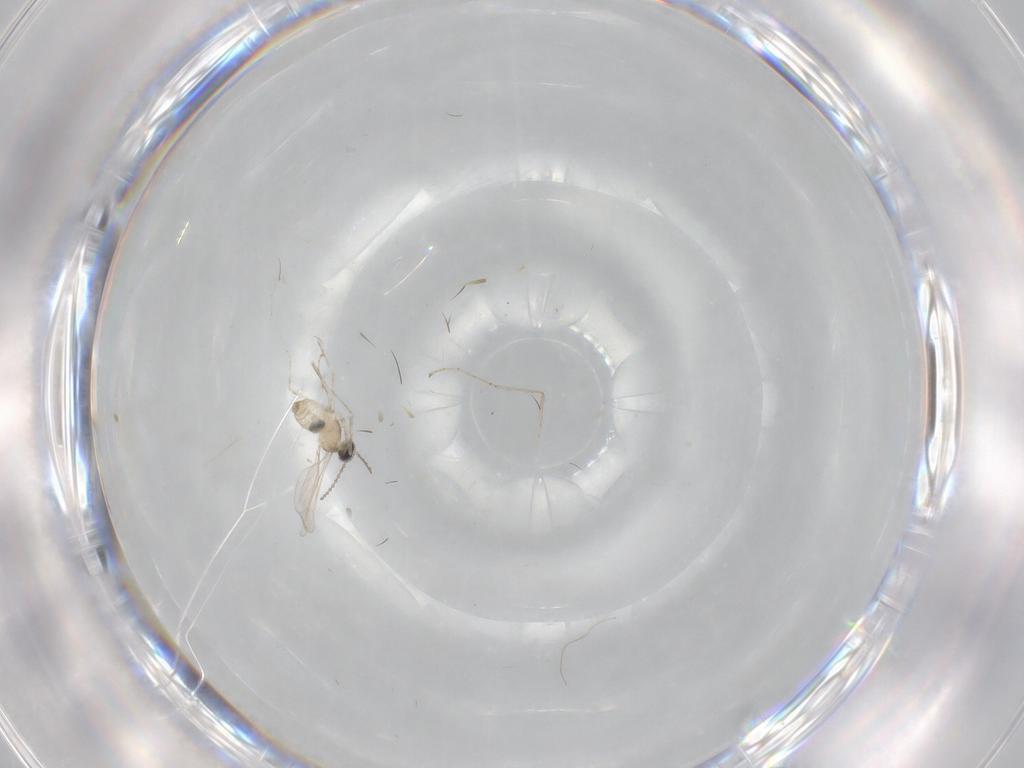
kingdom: Animalia
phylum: Arthropoda
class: Insecta
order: Diptera
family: Cecidomyiidae
